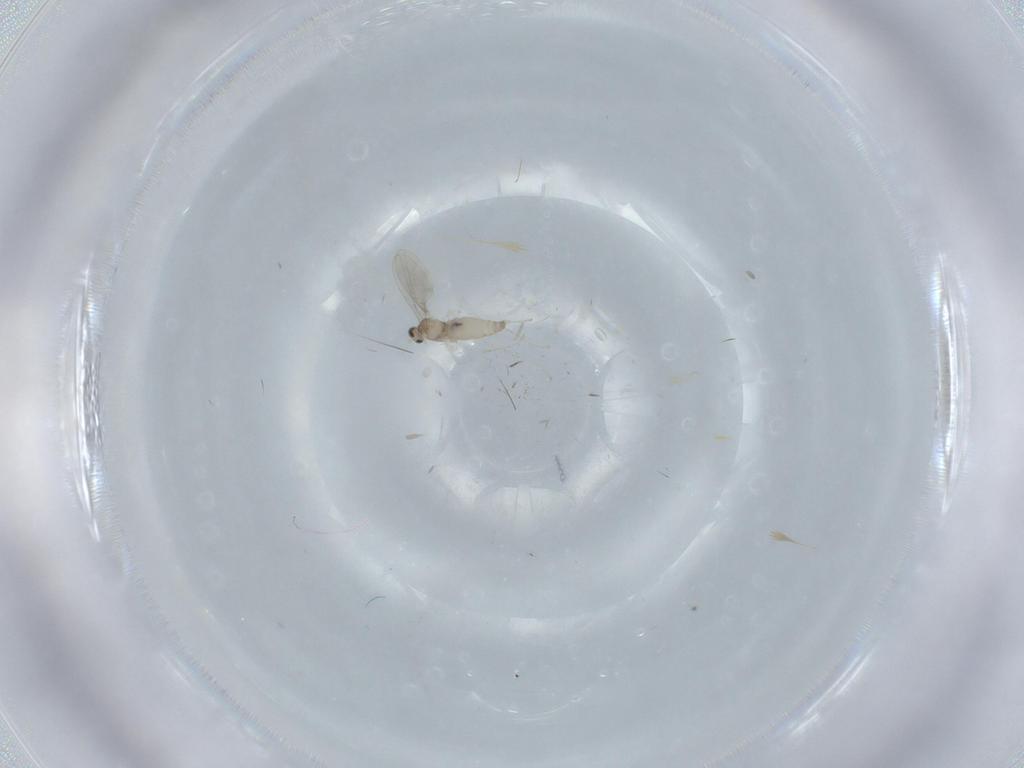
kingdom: Animalia
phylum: Arthropoda
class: Insecta
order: Diptera
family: Cecidomyiidae
